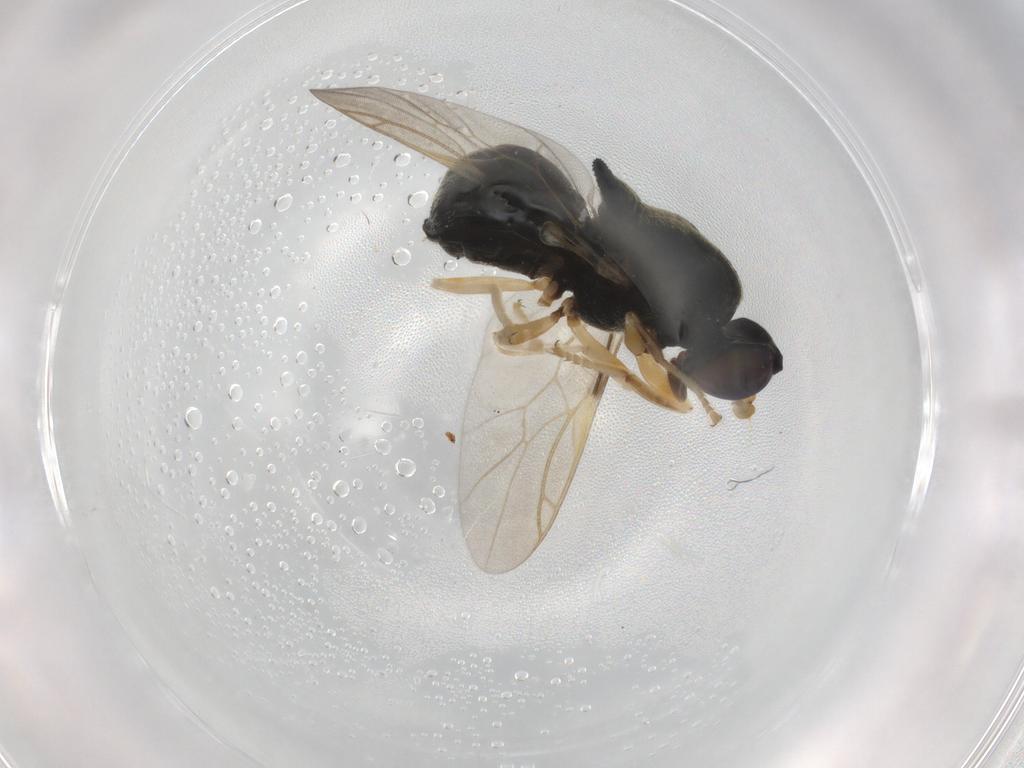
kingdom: Animalia
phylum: Arthropoda
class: Insecta
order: Diptera
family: Stratiomyidae
